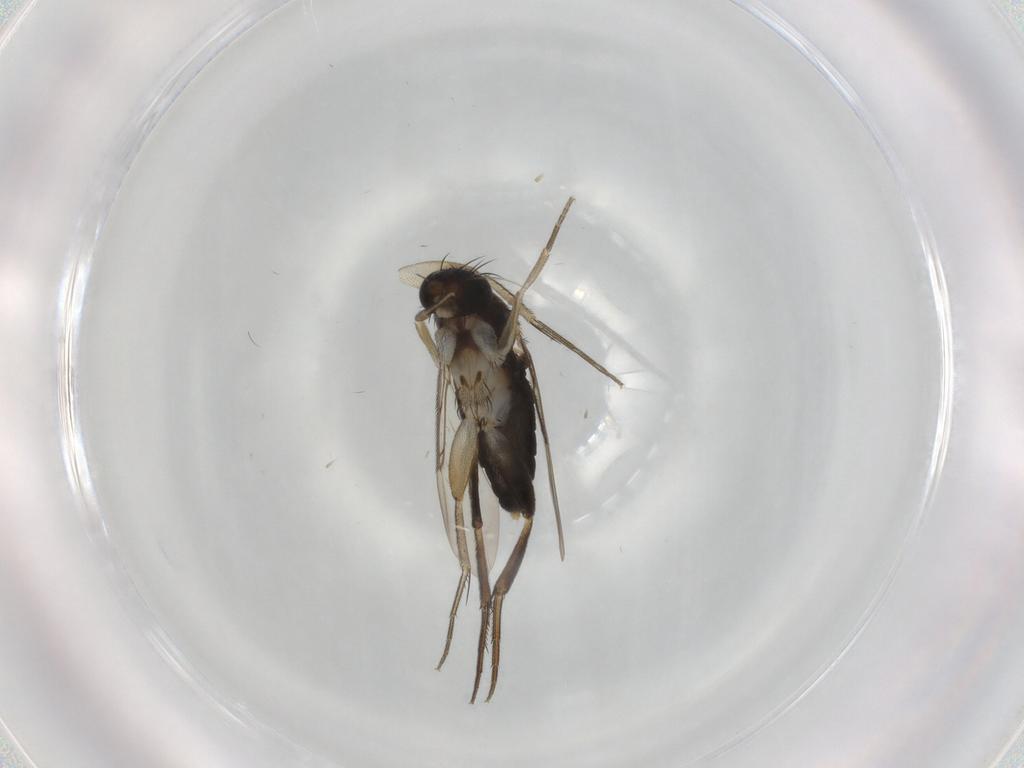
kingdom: Animalia
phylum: Arthropoda
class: Insecta
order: Diptera
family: Phoridae
